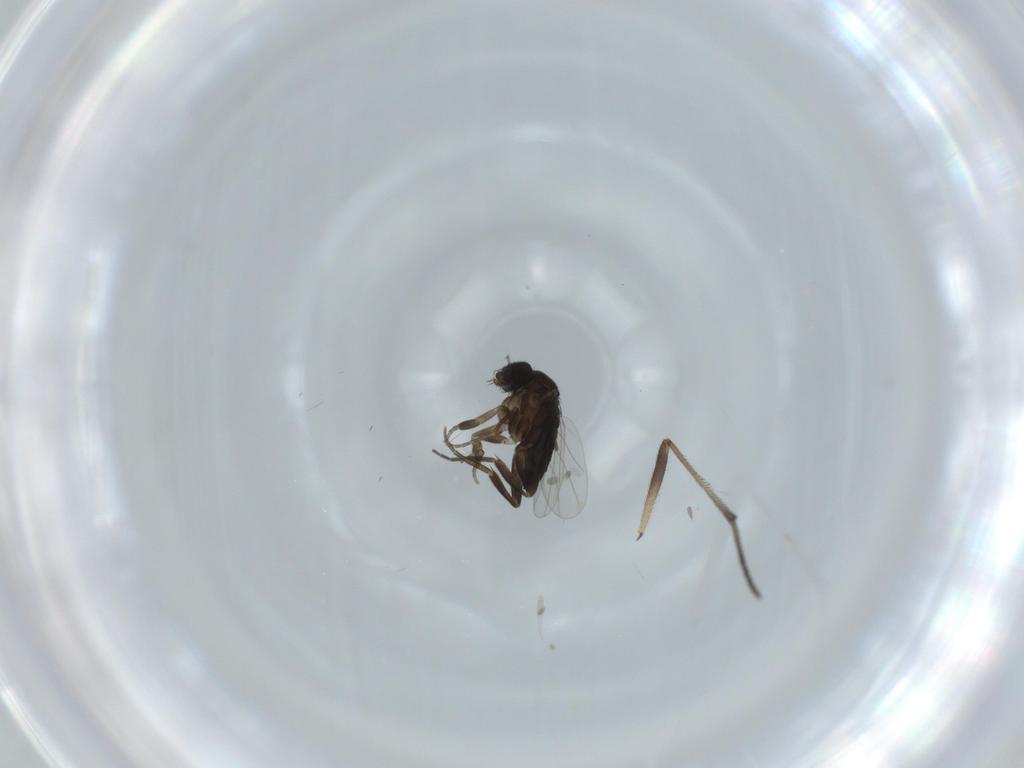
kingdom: Animalia
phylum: Arthropoda
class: Insecta
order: Diptera
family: Phoridae
